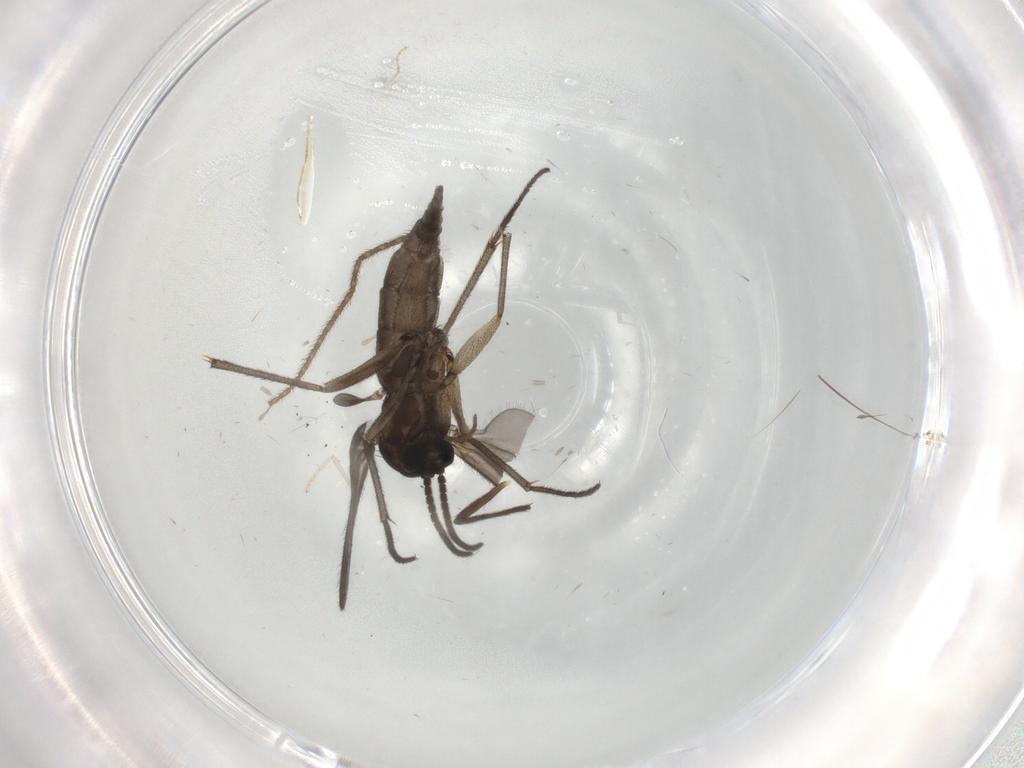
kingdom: Animalia
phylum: Arthropoda
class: Insecta
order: Diptera
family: Sciaridae
